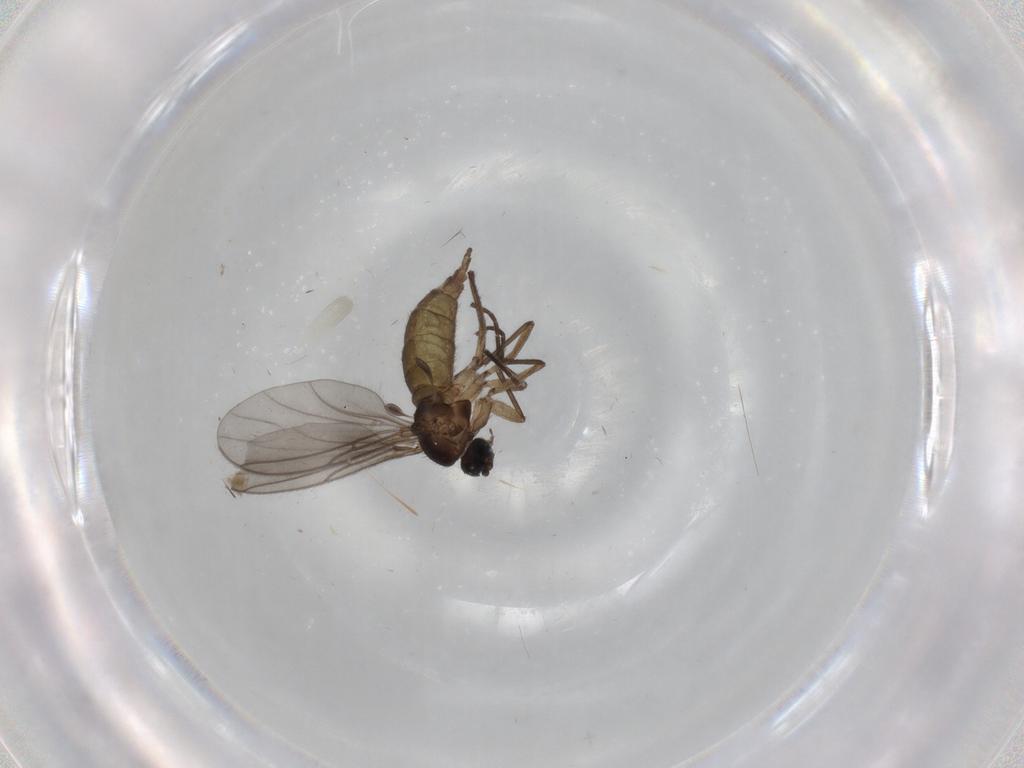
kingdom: Animalia
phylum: Arthropoda
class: Insecta
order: Diptera
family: Sciaridae
